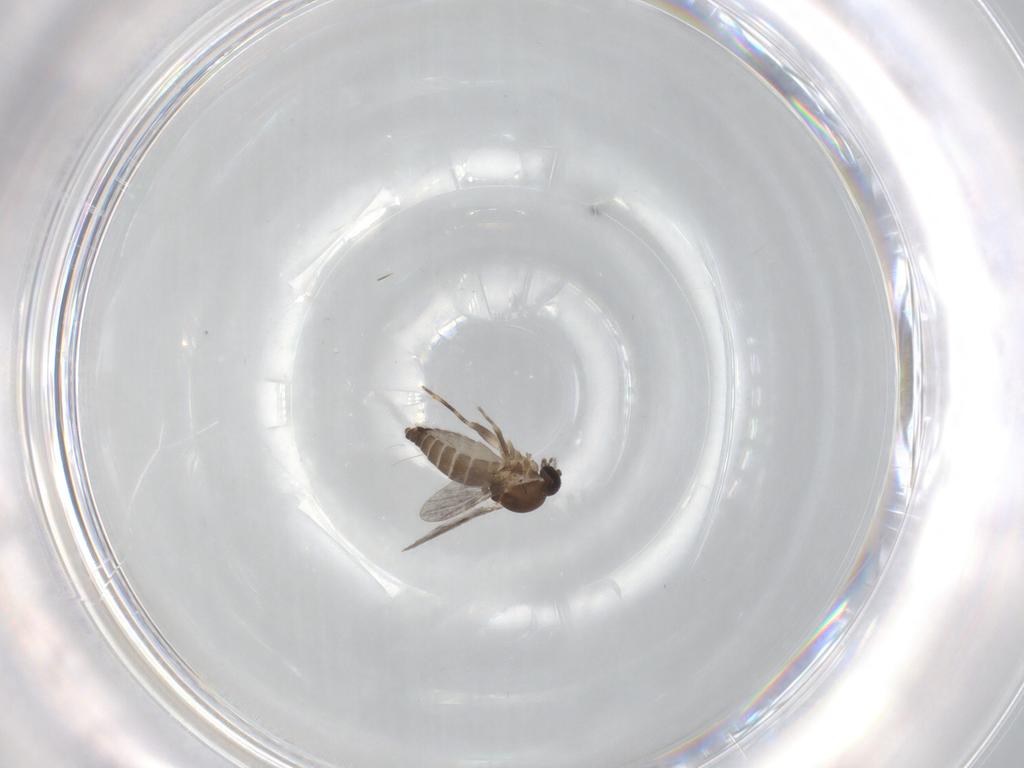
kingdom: Animalia
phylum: Arthropoda
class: Insecta
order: Diptera
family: Ceratopogonidae
